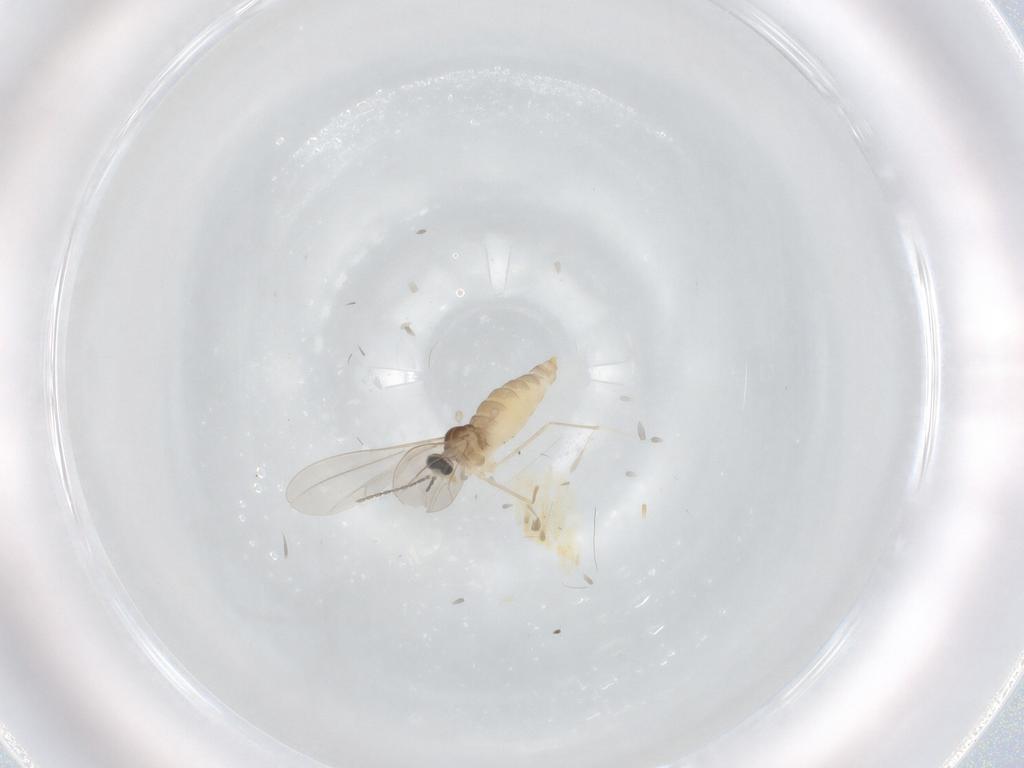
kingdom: Animalia
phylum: Arthropoda
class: Insecta
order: Diptera
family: Cecidomyiidae
